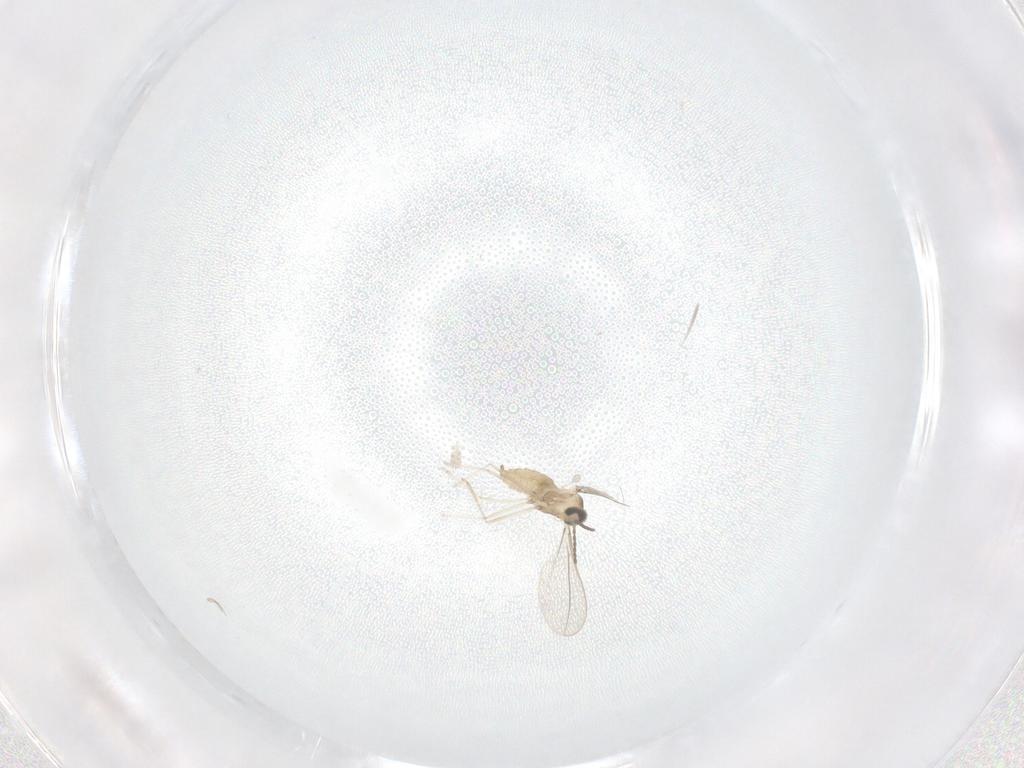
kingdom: Animalia
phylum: Arthropoda
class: Insecta
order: Diptera
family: Cecidomyiidae
